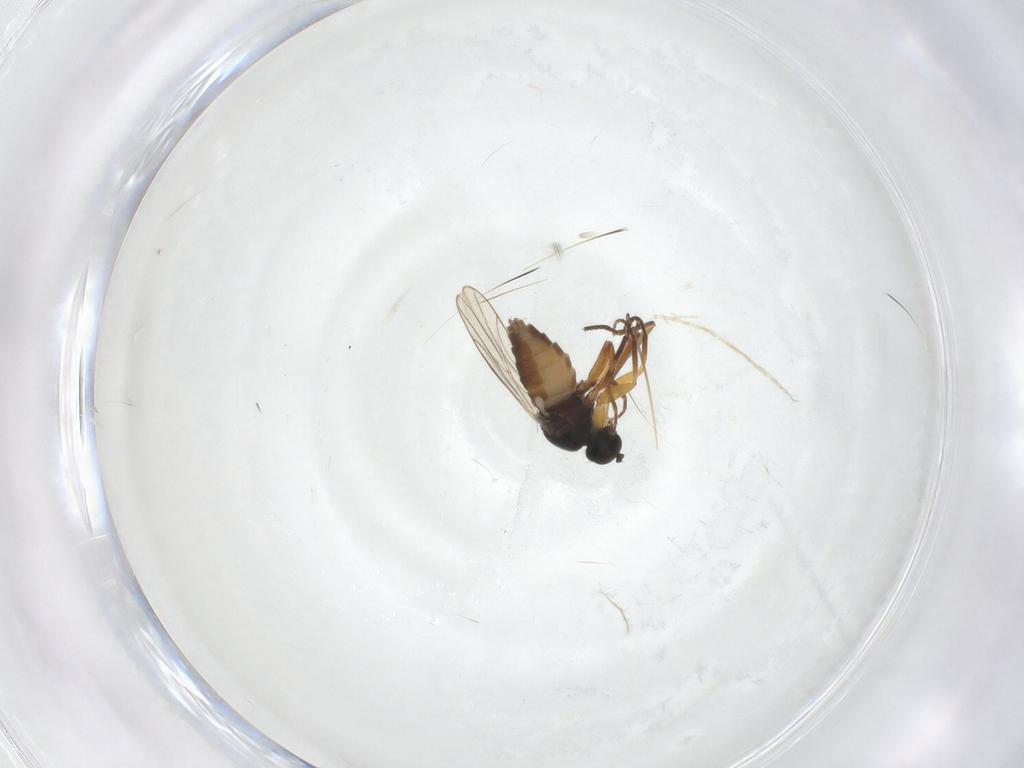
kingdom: Animalia
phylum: Arthropoda
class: Insecta
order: Diptera
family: Hybotidae
